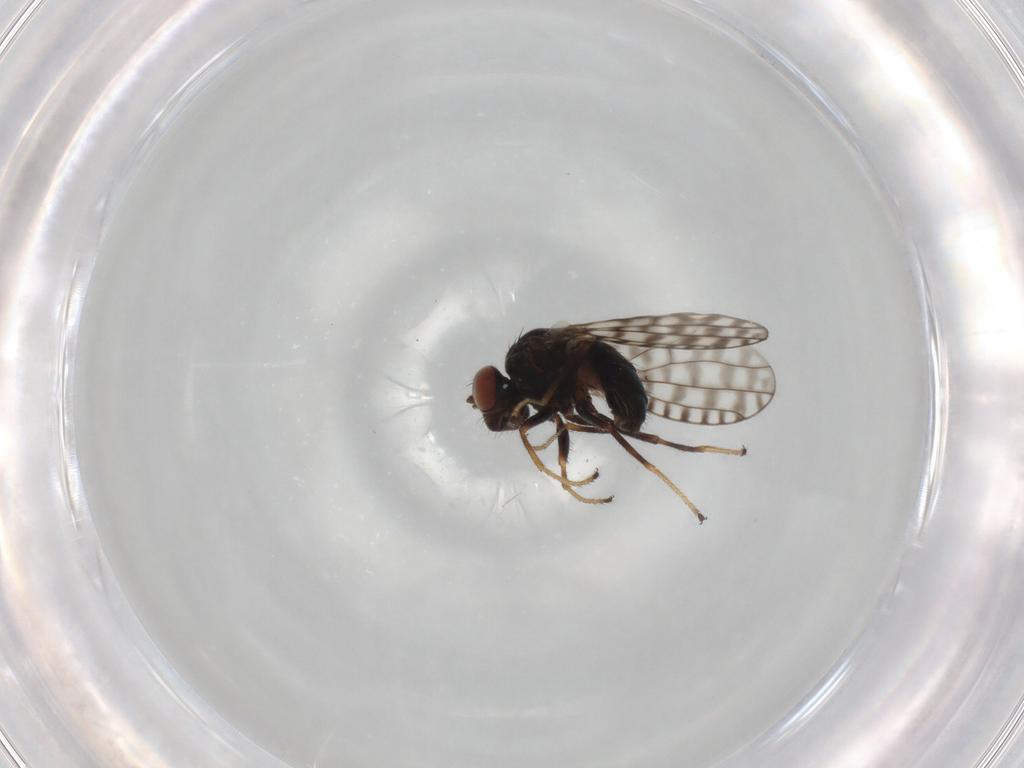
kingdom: Animalia
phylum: Arthropoda
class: Insecta
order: Diptera
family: Ephydridae
